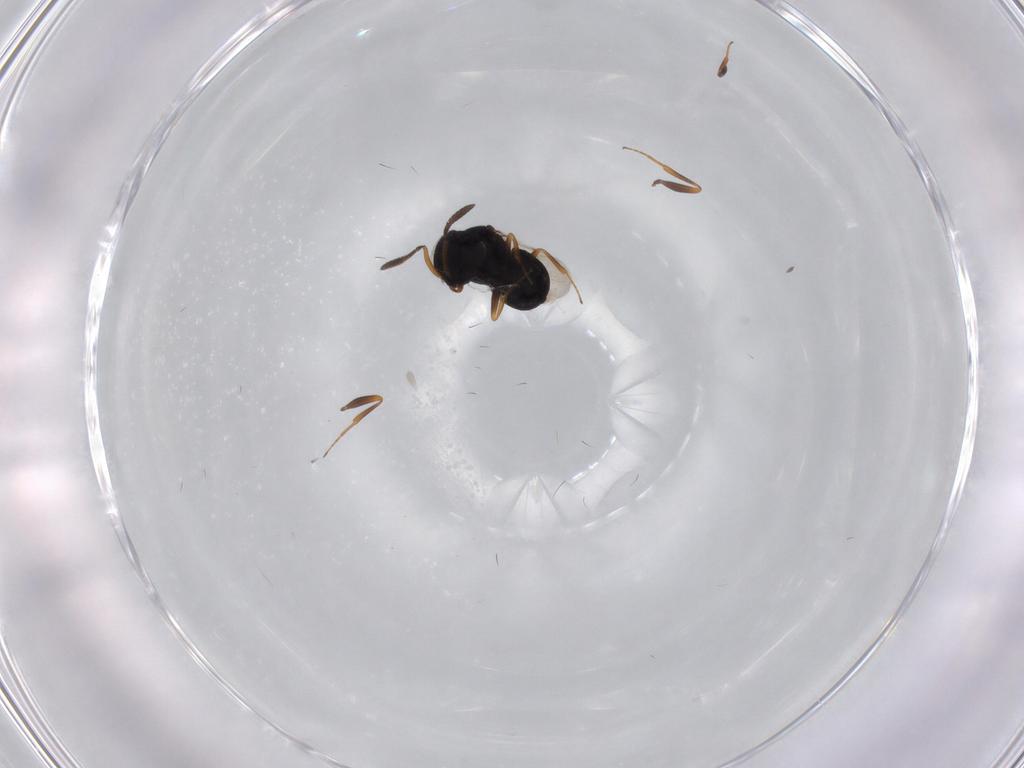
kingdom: Animalia
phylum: Arthropoda
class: Insecta
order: Hymenoptera
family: Scelionidae
